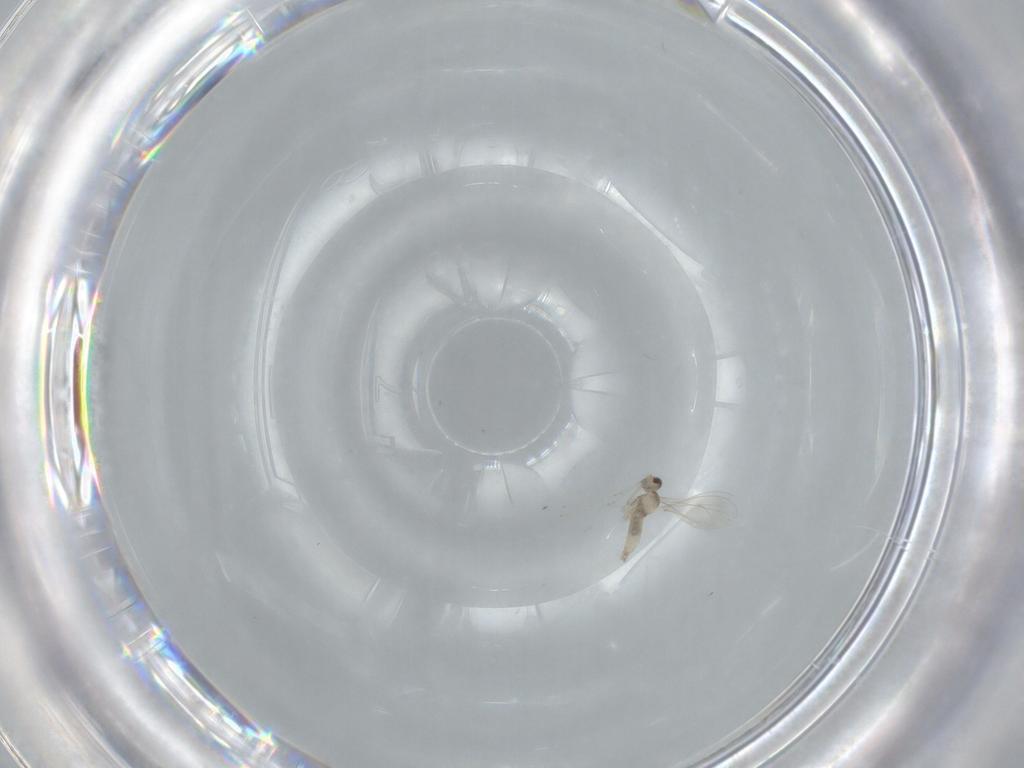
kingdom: Animalia
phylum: Arthropoda
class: Insecta
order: Diptera
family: Cecidomyiidae
